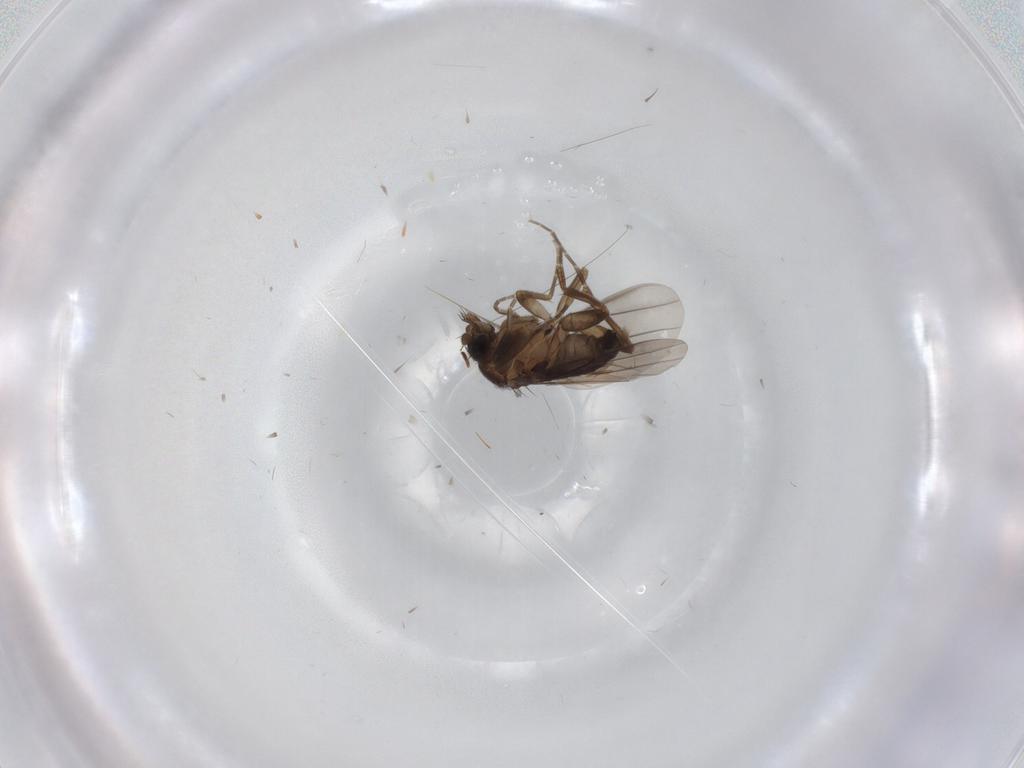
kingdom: Animalia
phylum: Arthropoda
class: Insecta
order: Diptera
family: Cecidomyiidae
